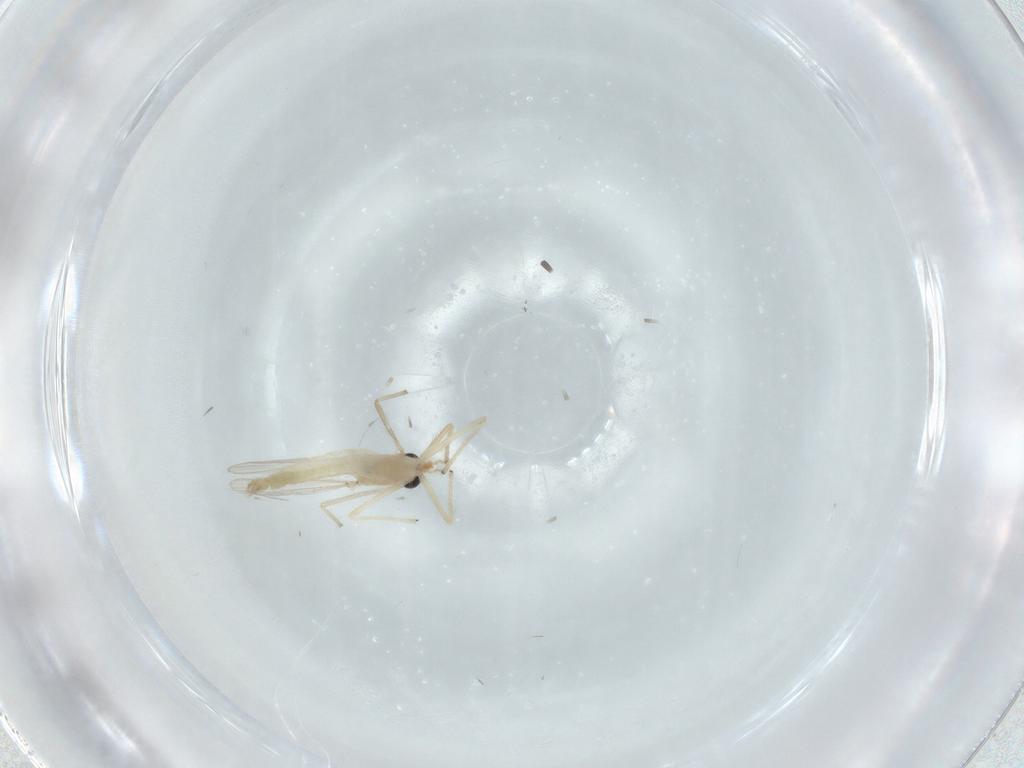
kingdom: Animalia
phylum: Arthropoda
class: Insecta
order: Diptera
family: Chironomidae
